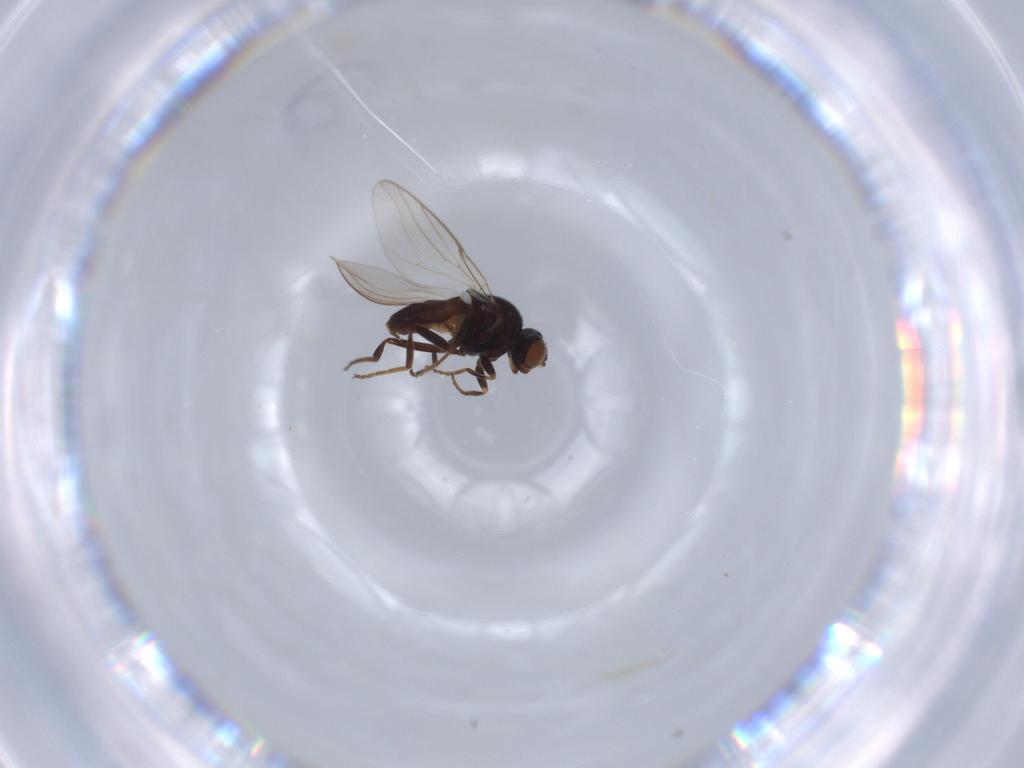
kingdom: Animalia
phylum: Arthropoda
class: Insecta
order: Diptera
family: Chloropidae
